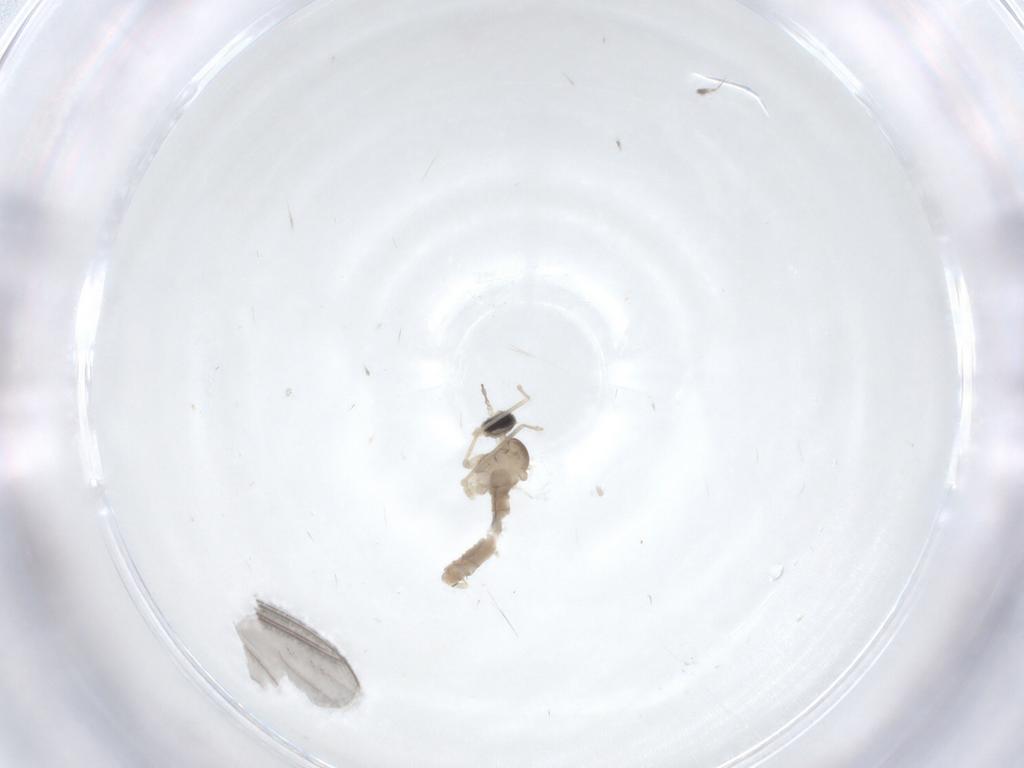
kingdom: Animalia
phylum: Arthropoda
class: Insecta
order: Diptera
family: Cecidomyiidae
